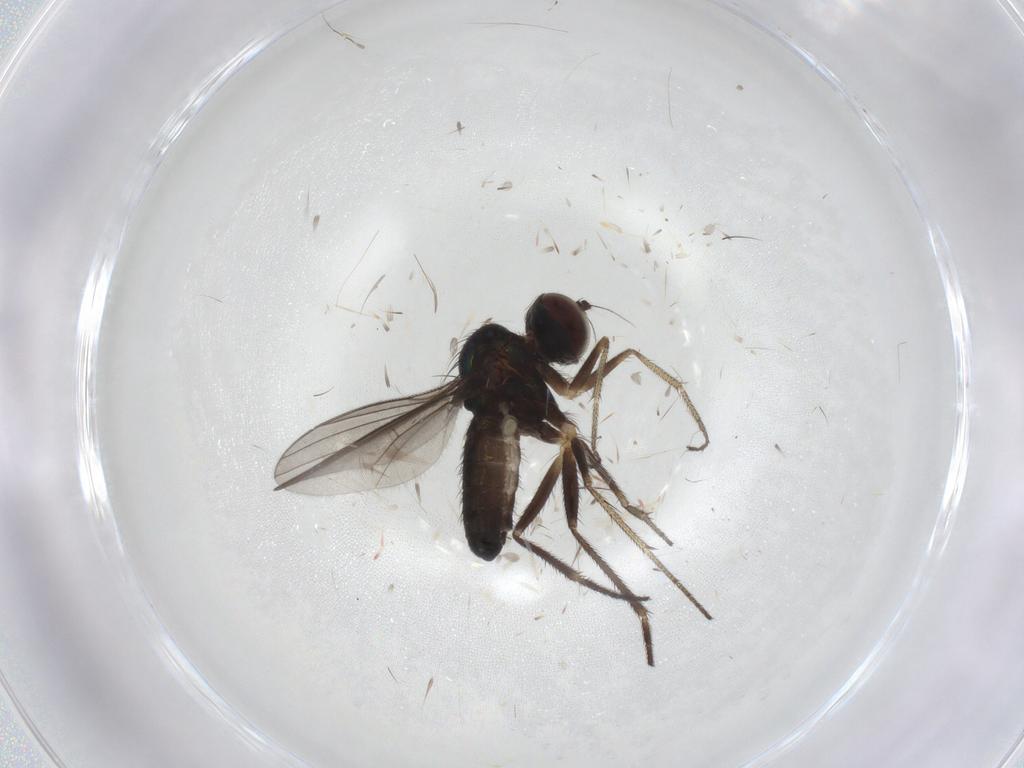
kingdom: Animalia
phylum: Arthropoda
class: Insecta
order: Diptera
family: Dolichopodidae
